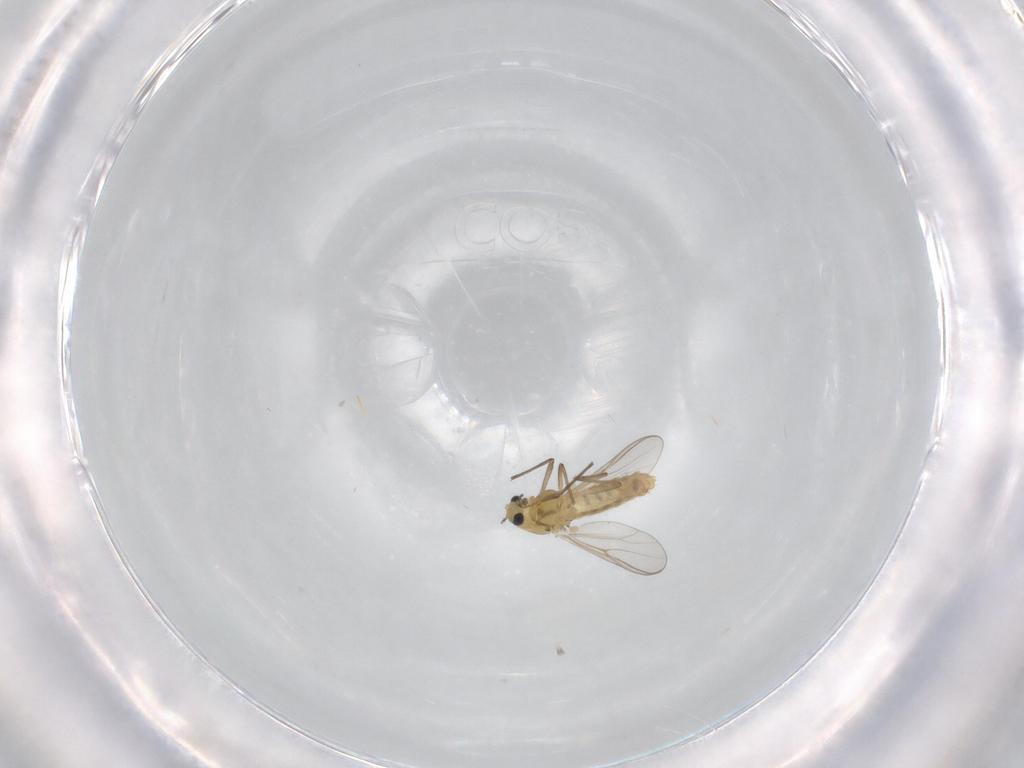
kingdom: Animalia
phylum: Arthropoda
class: Insecta
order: Diptera
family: Chironomidae
